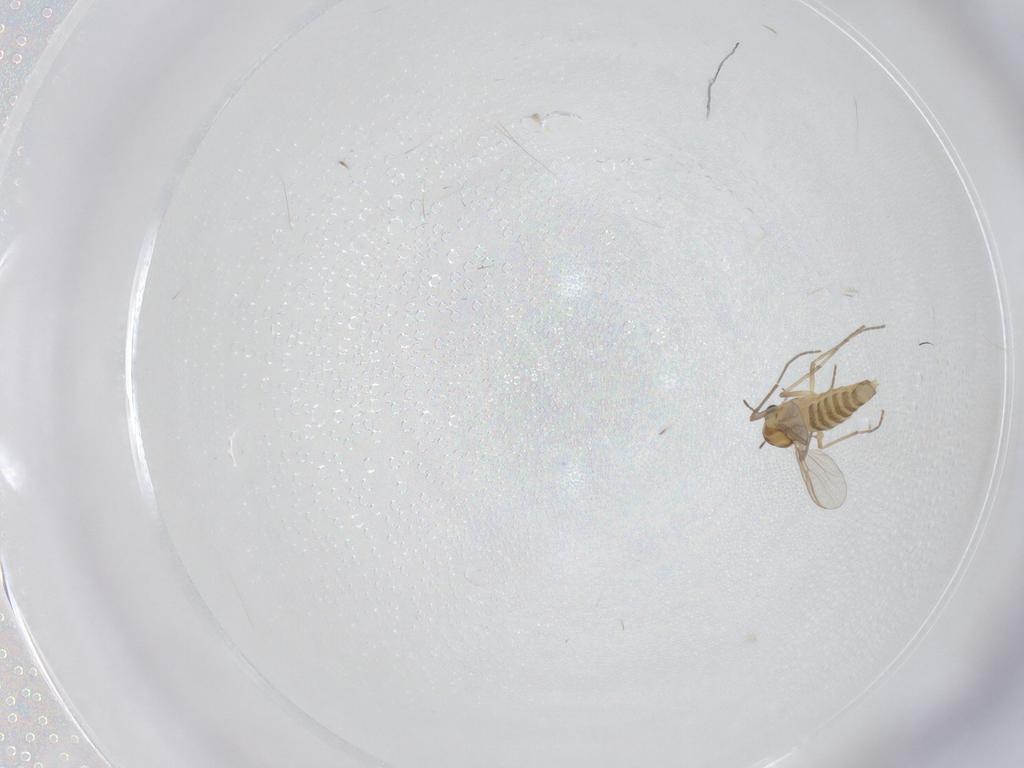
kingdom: Animalia
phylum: Arthropoda
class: Insecta
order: Diptera
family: Chironomidae
